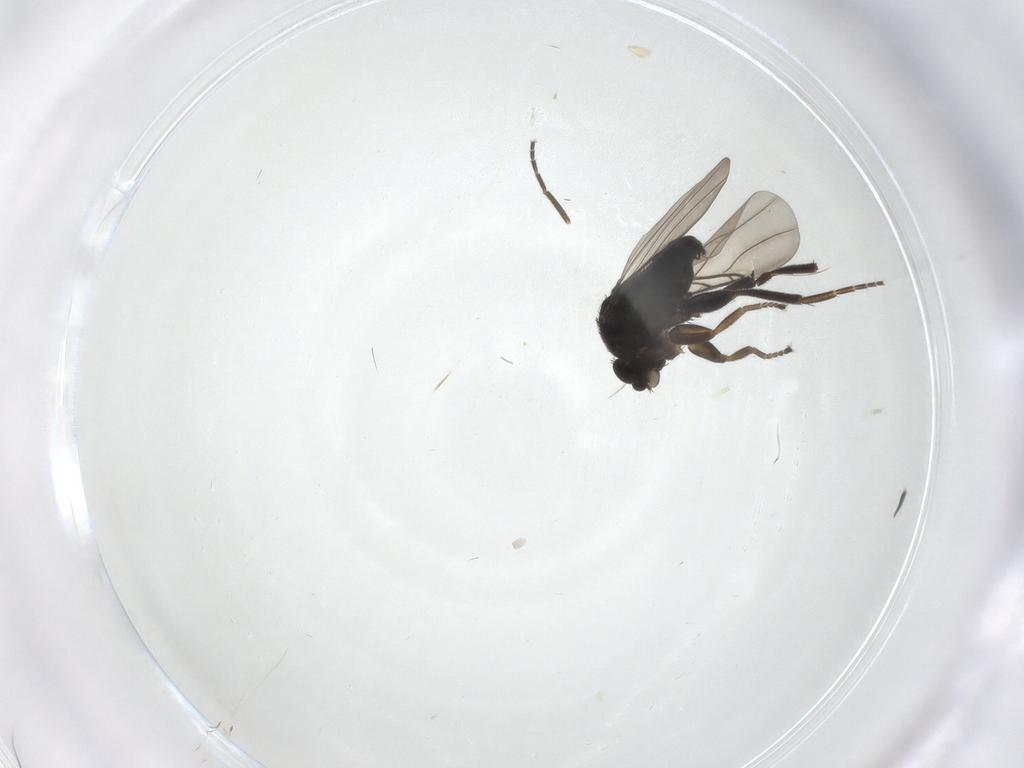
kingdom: Animalia
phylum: Arthropoda
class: Insecta
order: Diptera
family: Phoridae
